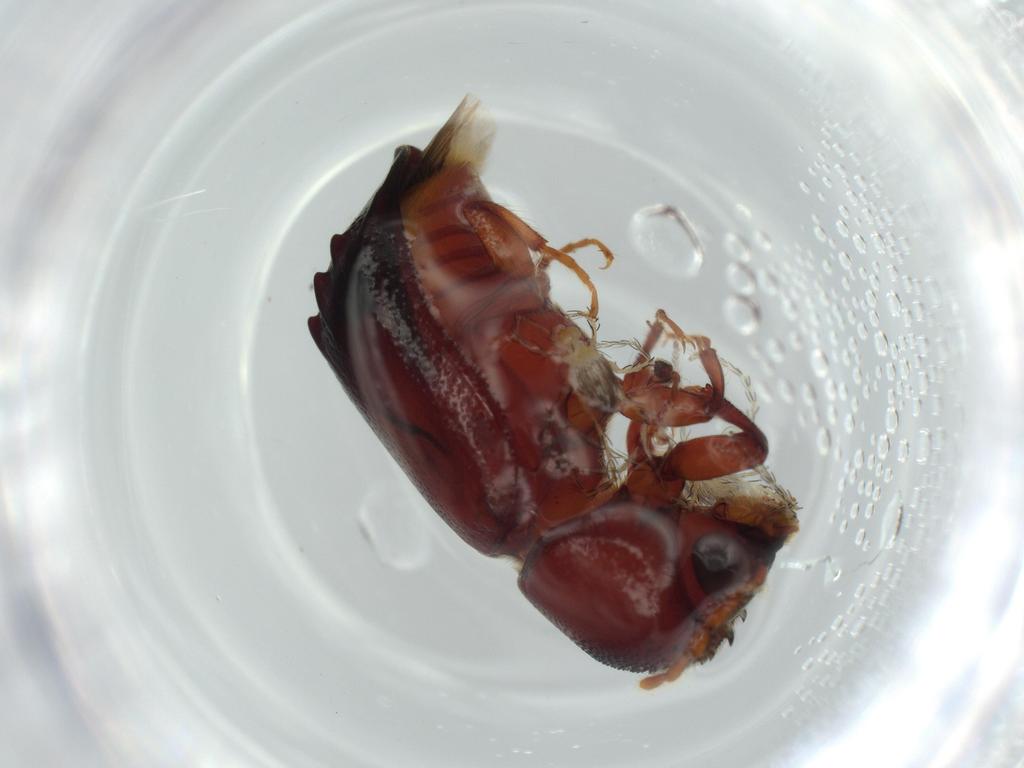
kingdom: Animalia
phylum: Arthropoda
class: Insecta
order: Coleoptera
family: Bostrichidae
